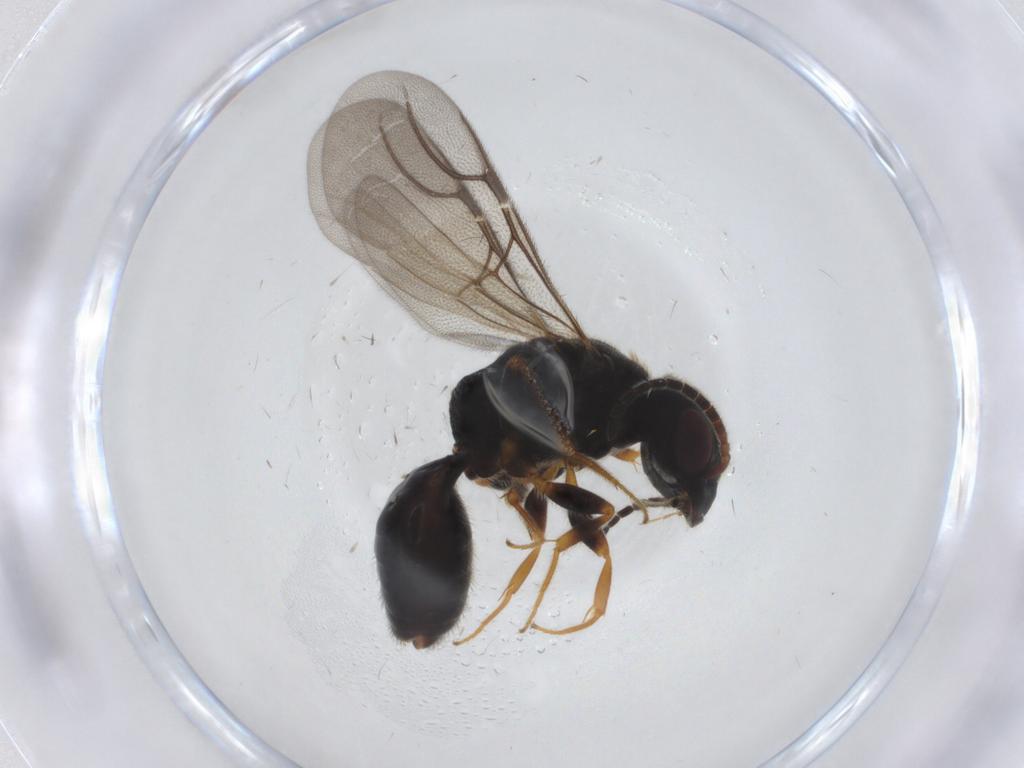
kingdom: Animalia
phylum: Arthropoda
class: Insecta
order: Hymenoptera
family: Bethylidae
